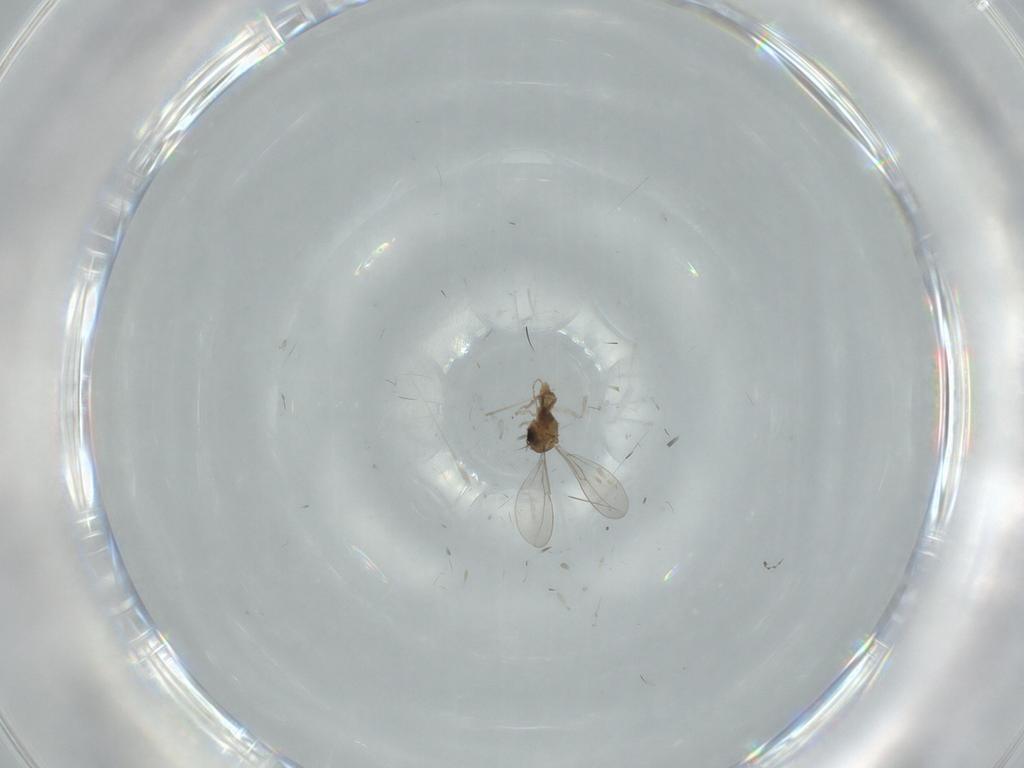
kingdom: Animalia
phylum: Arthropoda
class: Insecta
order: Diptera
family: Cecidomyiidae
